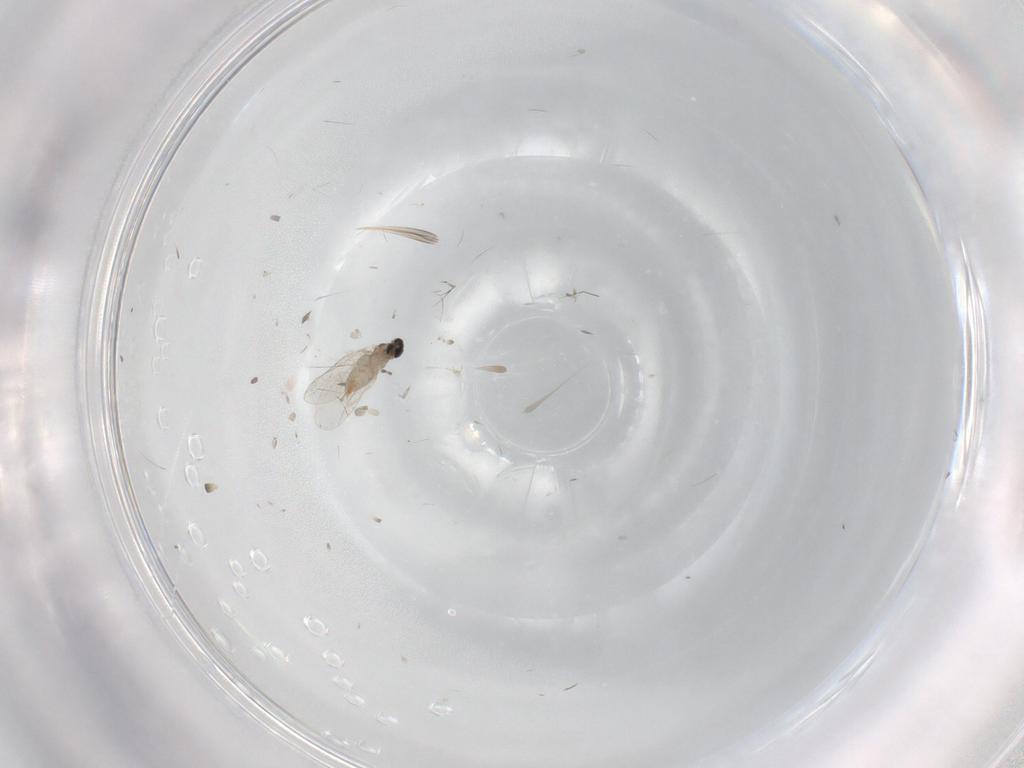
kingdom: Animalia
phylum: Arthropoda
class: Insecta
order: Diptera
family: Cecidomyiidae
